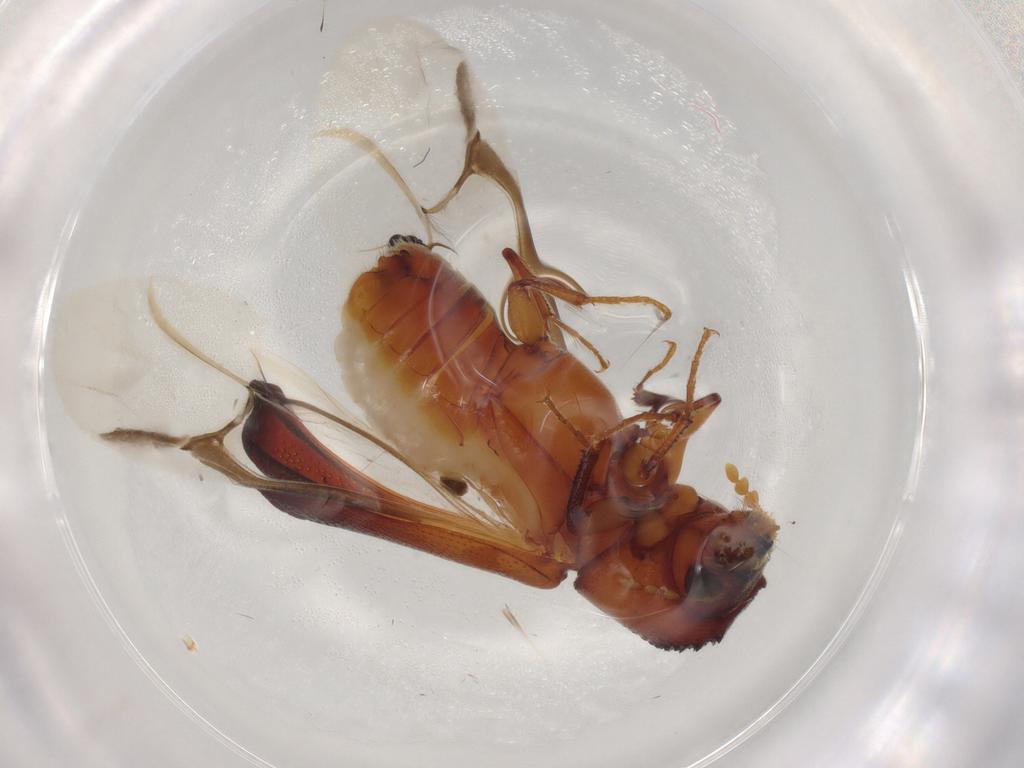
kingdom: Animalia
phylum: Arthropoda
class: Insecta
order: Coleoptera
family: Bostrichidae
